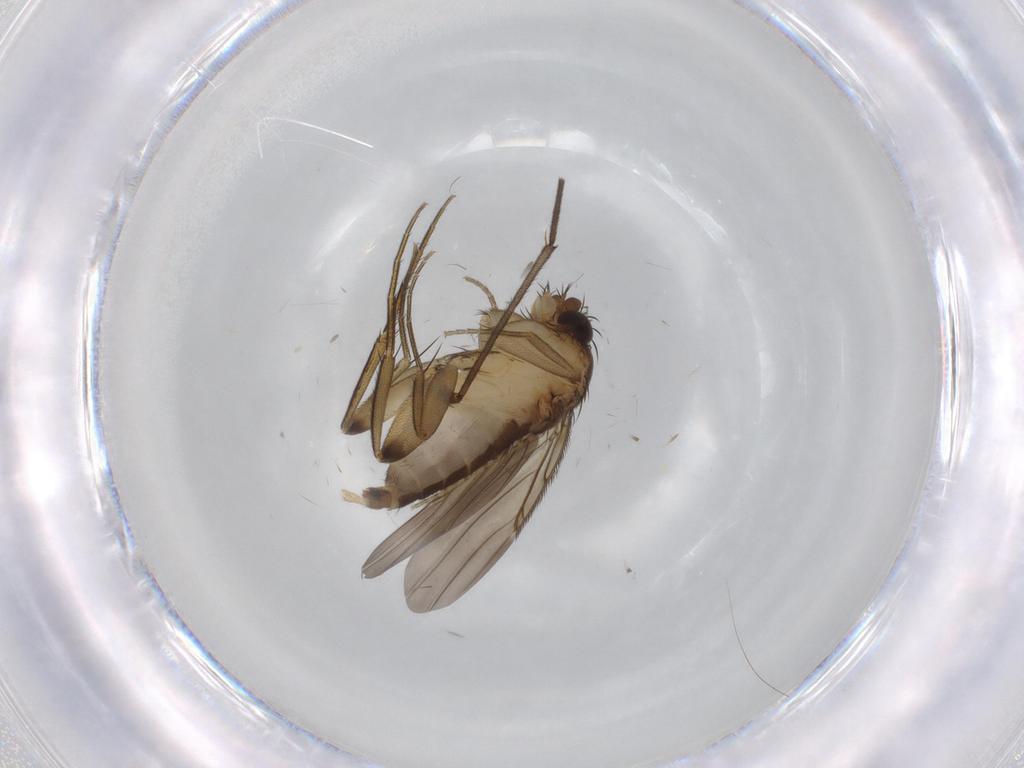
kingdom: Animalia
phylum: Arthropoda
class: Insecta
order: Diptera
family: Phoridae
